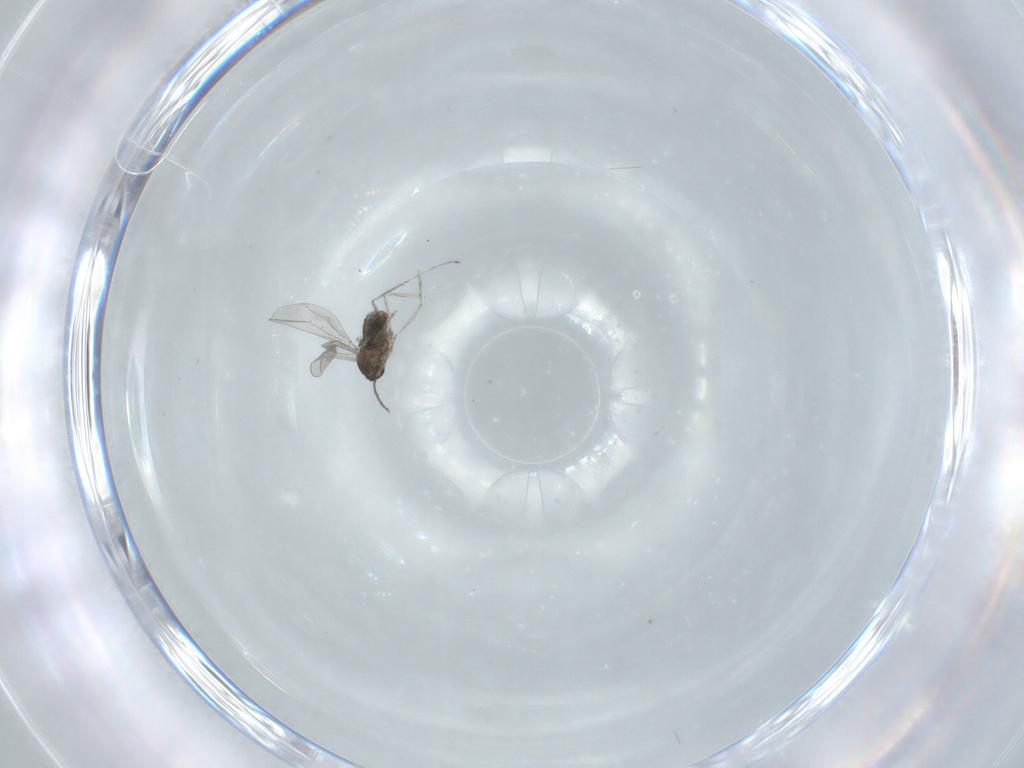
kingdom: Animalia
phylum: Arthropoda
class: Insecta
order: Diptera
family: Cecidomyiidae
